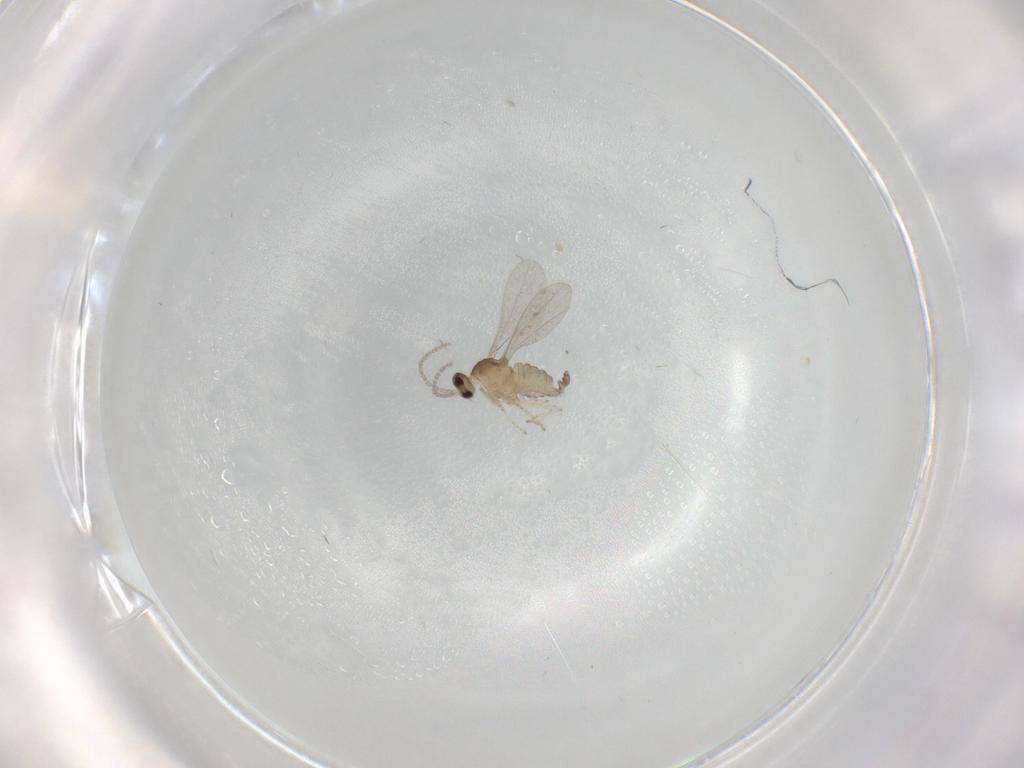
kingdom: Animalia
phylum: Arthropoda
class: Insecta
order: Diptera
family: Cecidomyiidae
